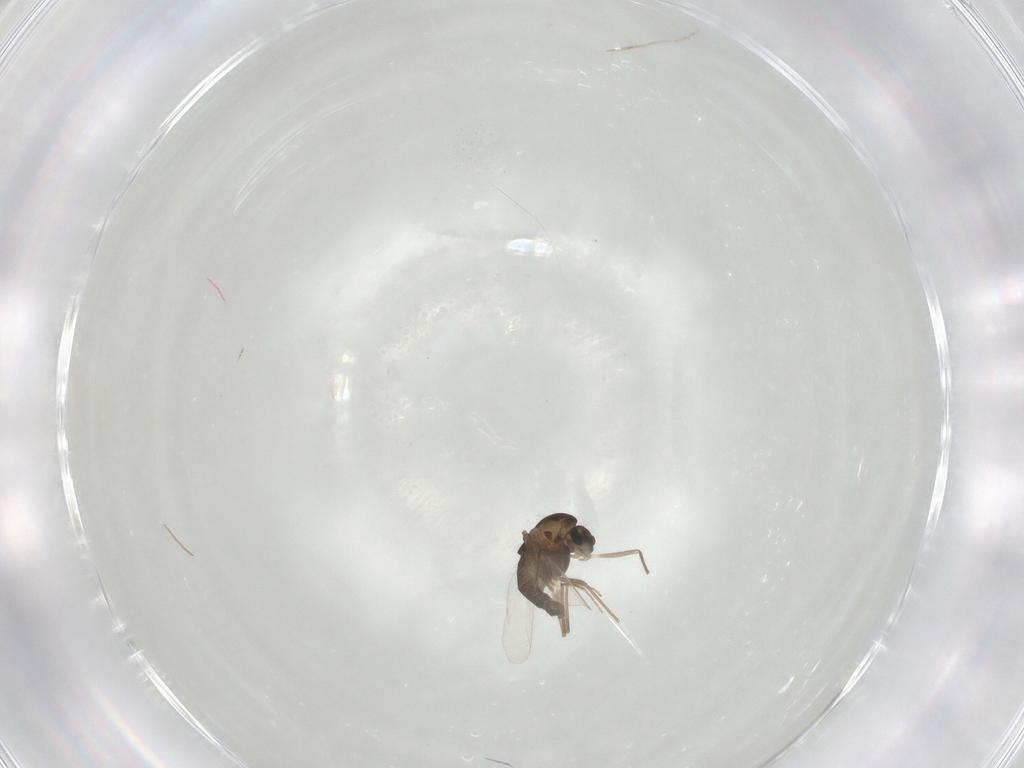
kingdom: Animalia
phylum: Arthropoda
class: Insecta
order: Diptera
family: Chironomidae
